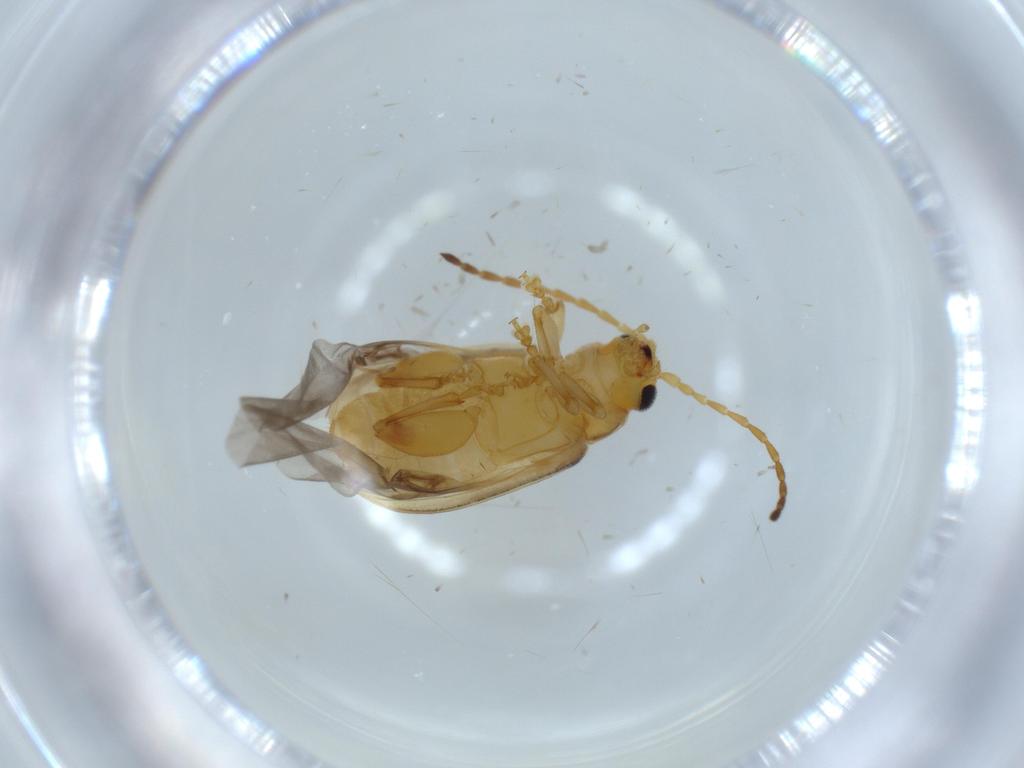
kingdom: Animalia
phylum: Arthropoda
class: Insecta
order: Coleoptera
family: Chrysomelidae
